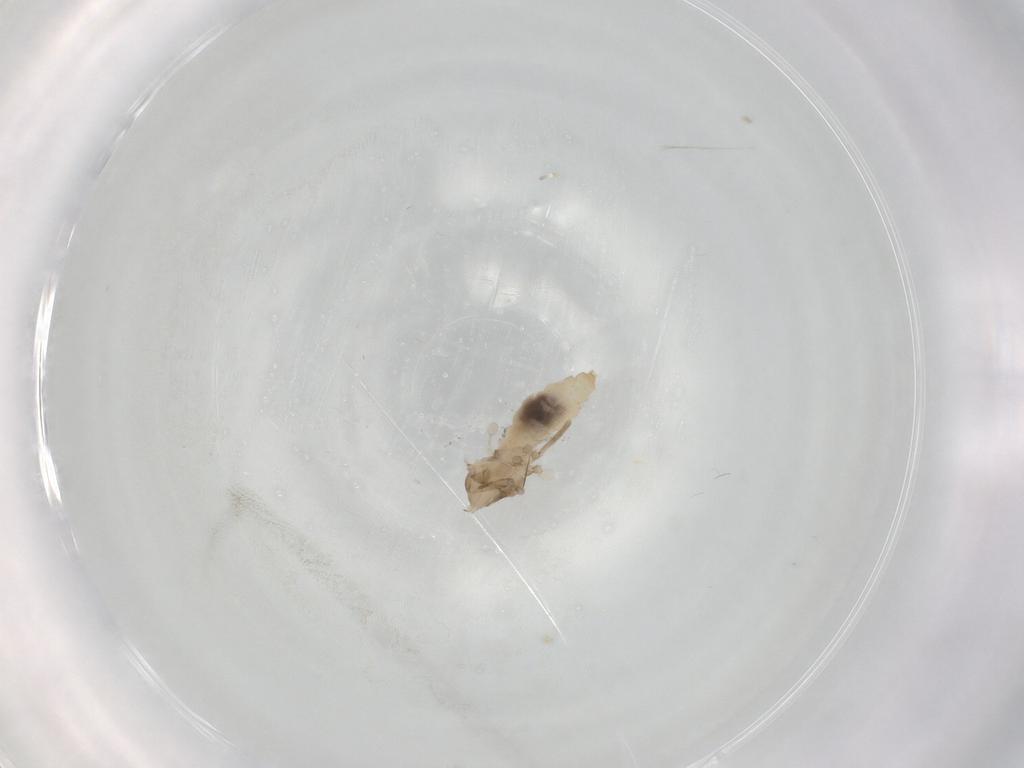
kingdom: Animalia
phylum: Arthropoda
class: Insecta
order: Diptera
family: Cecidomyiidae
